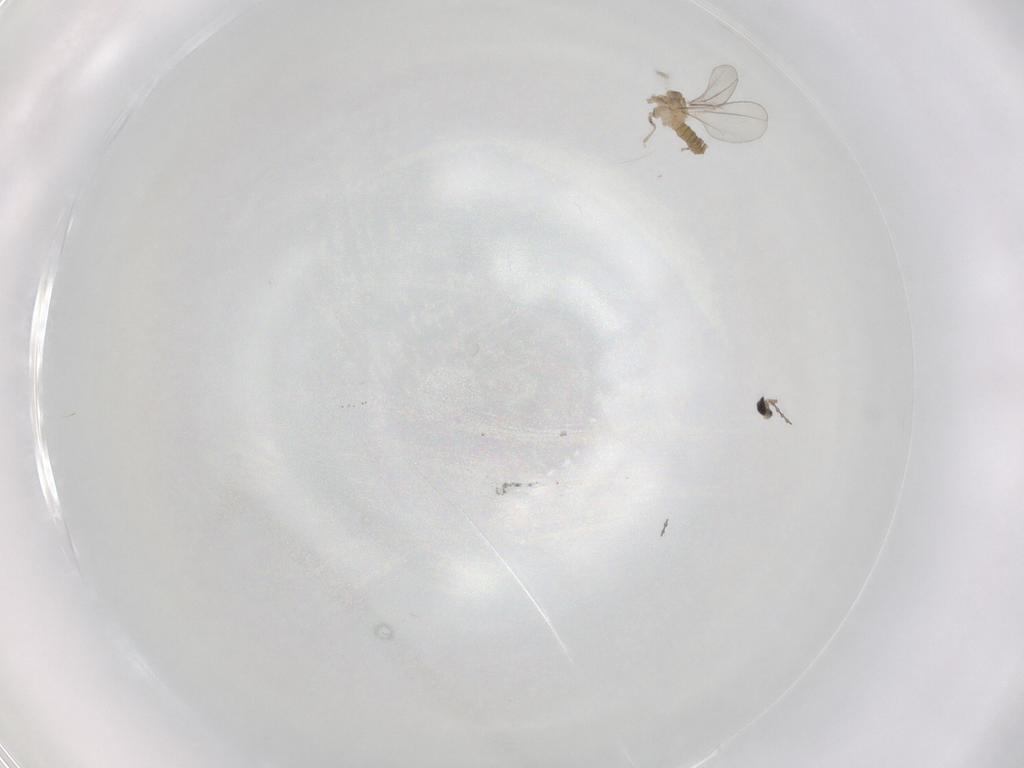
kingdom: Animalia
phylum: Arthropoda
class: Insecta
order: Diptera
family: Cecidomyiidae
